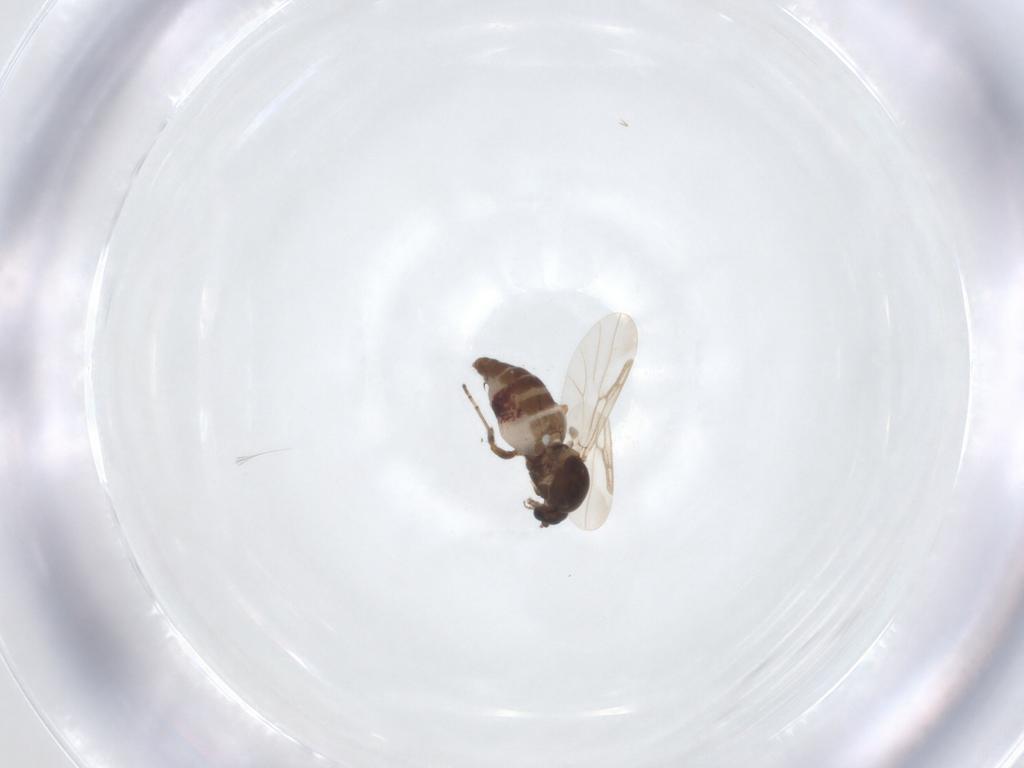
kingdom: Animalia
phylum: Arthropoda
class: Insecta
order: Diptera
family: Ceratopogonidae
